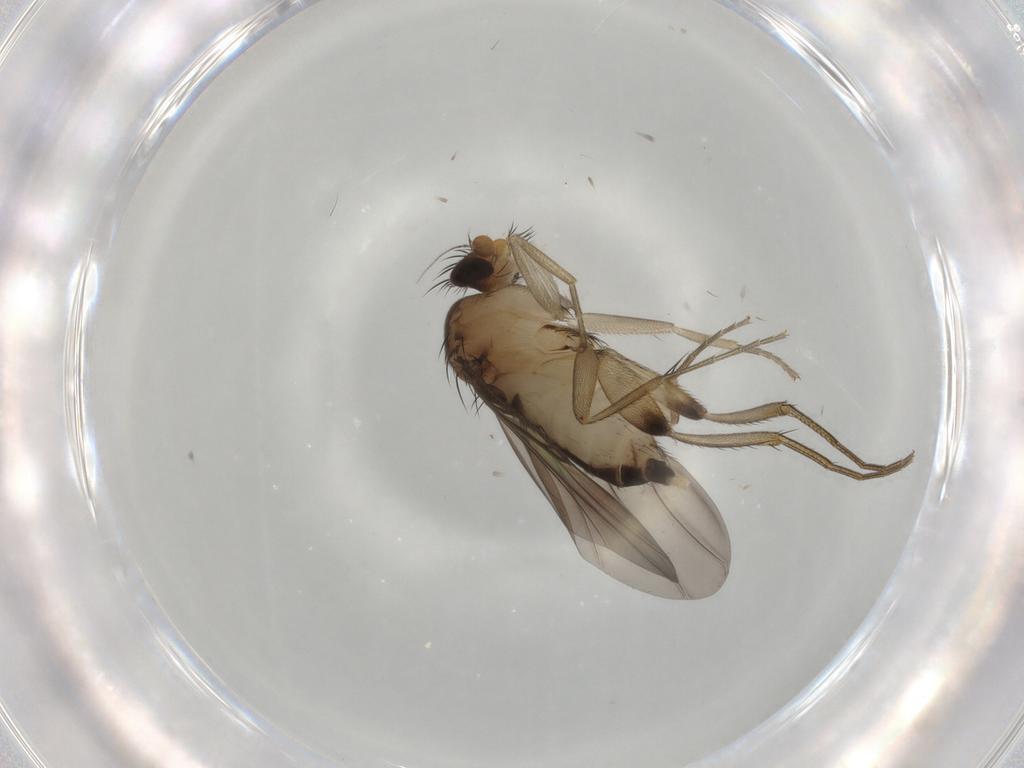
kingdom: Animalia
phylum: Arthropoda
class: Insecta
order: Diptera
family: Phoridae
